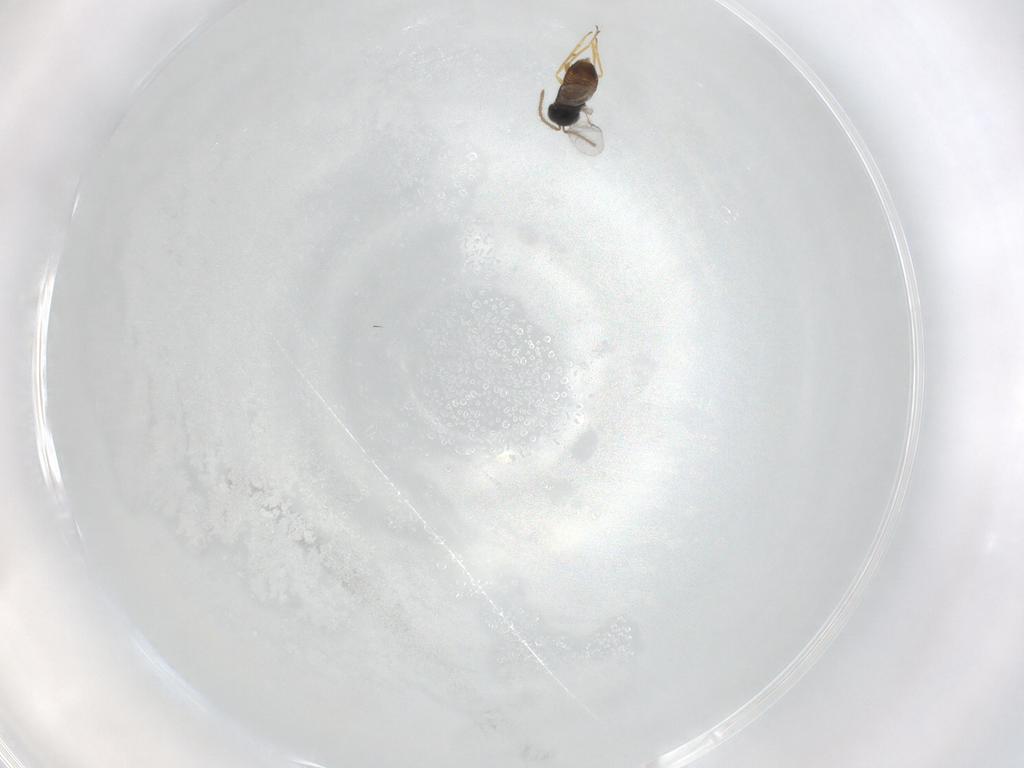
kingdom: Animalia
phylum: Arthropoda
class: Insecta
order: Hymenoptera
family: Encyrtidae
